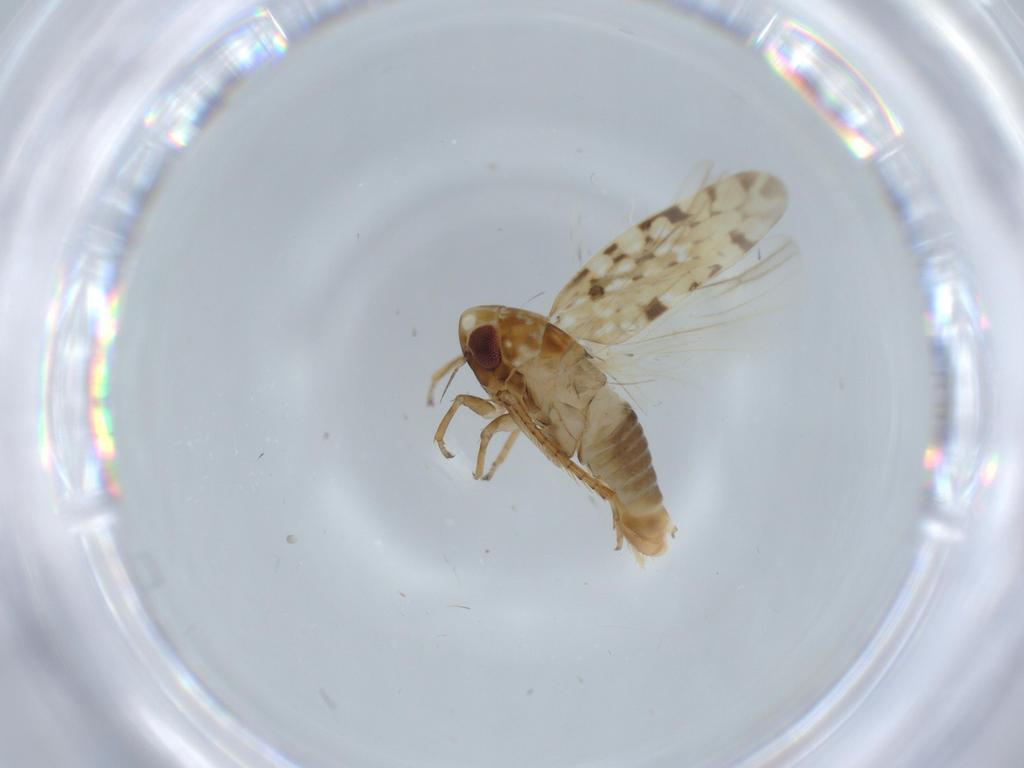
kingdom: Animalia
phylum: Arthropoda
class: Insecta
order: Hemiptera
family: Cicadellidae
